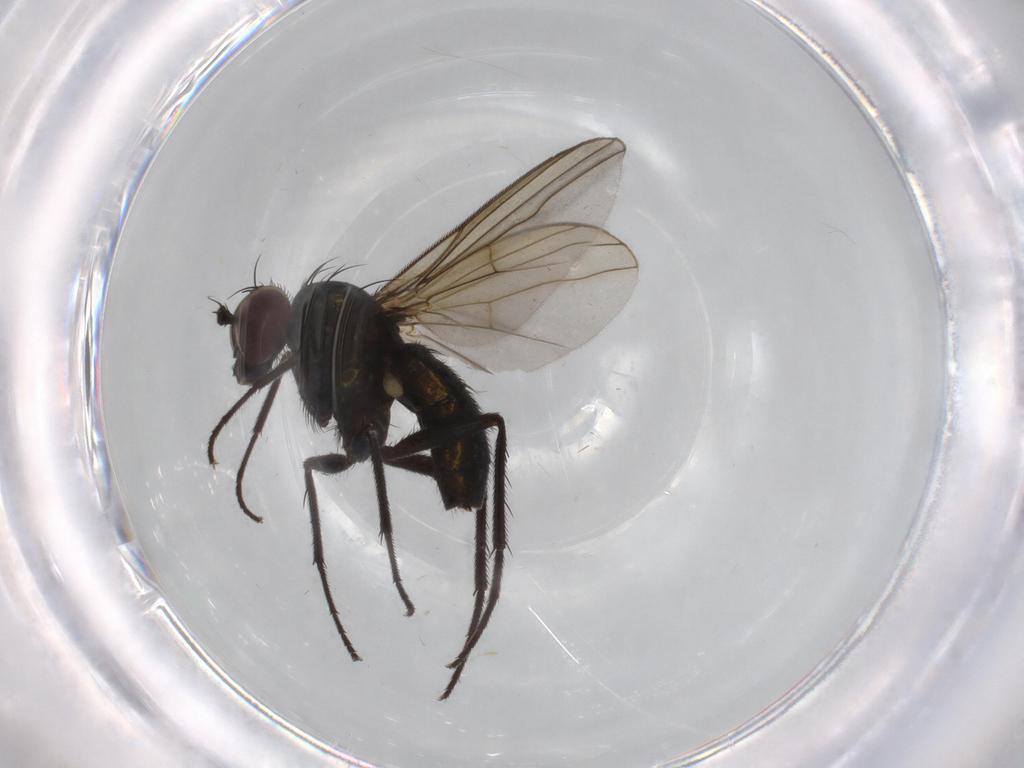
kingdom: Animalia
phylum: Arthropoda
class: Insecta
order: Diptera
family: Dolichopodidae
